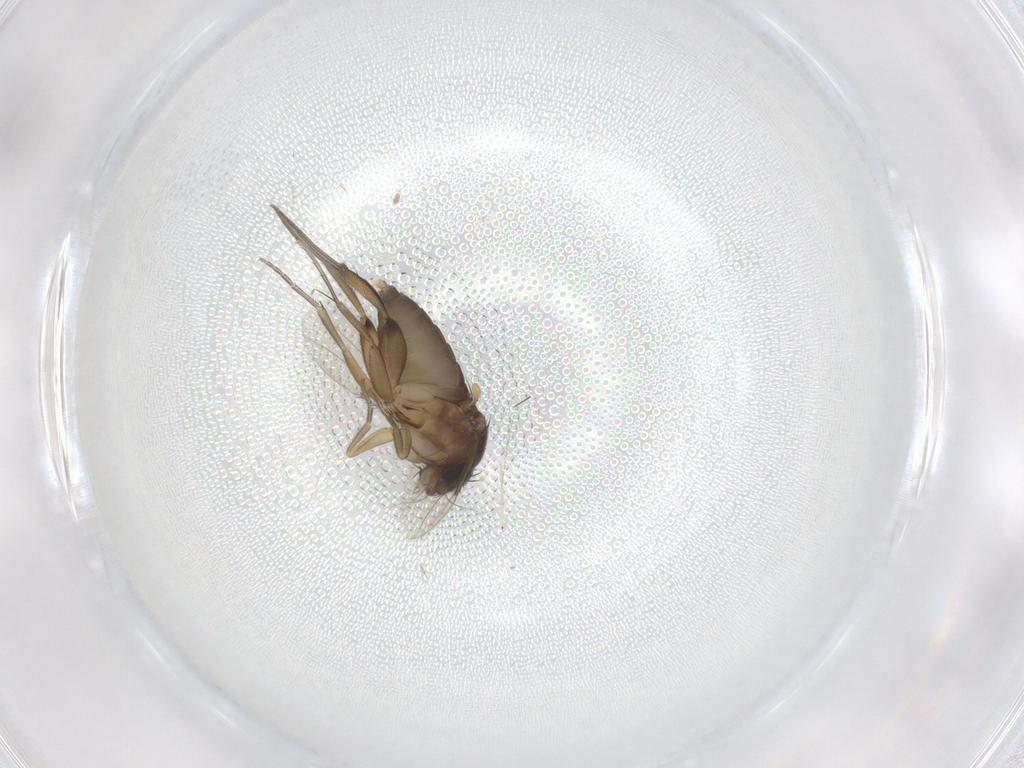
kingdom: Animalia
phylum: Arthropoda
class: Insecta
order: Diptera
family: Phoridae
